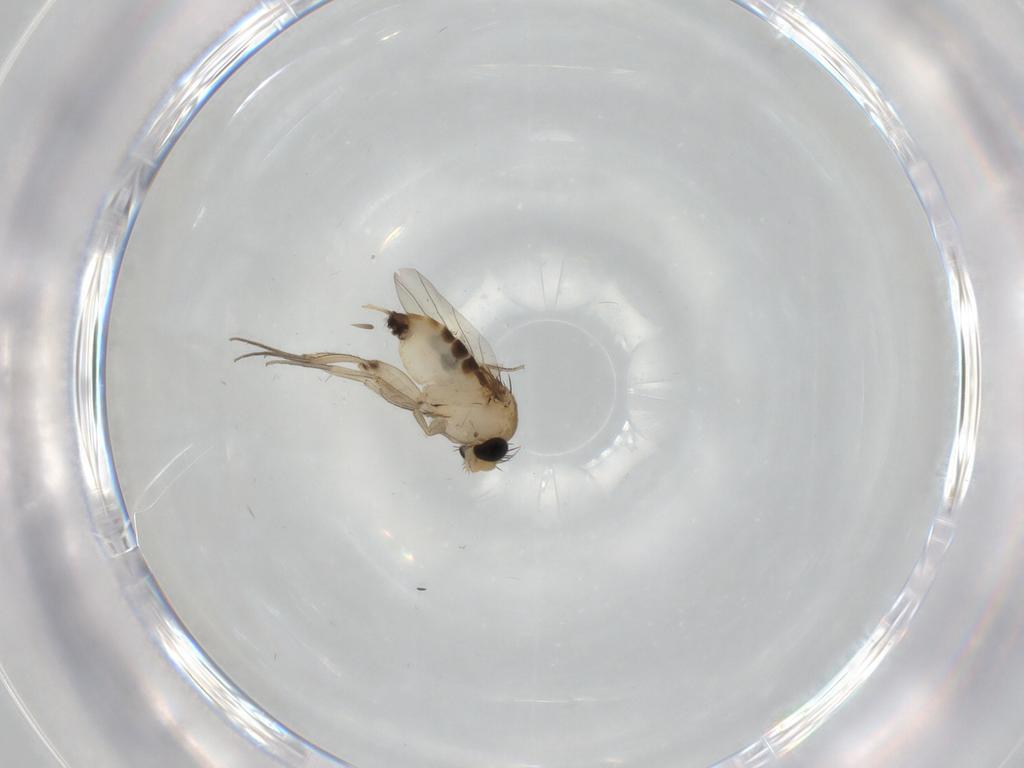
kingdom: Animalia
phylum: Arthropoda
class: Insecta
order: Diptera
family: Phoridae
